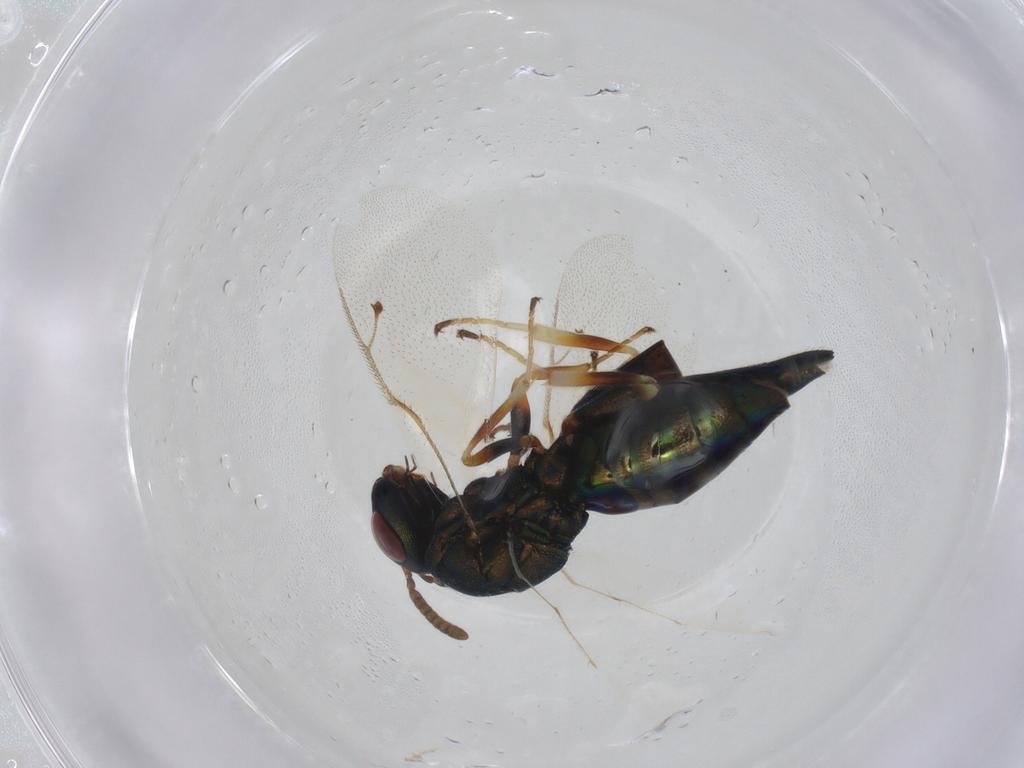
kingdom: Animalia
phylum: Arthropoda
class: Insecta
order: Hymenoptera
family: Pteromalidae
